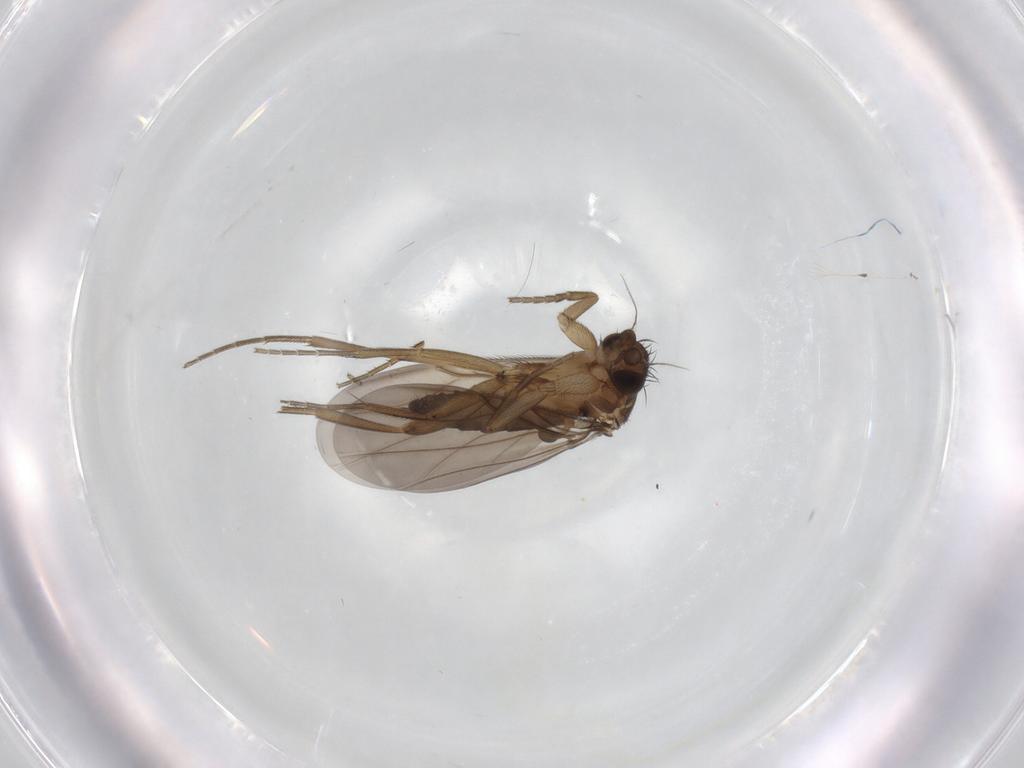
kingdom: Animalia
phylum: Arthropoda
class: Insecta
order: Diptera
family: Phoridae
